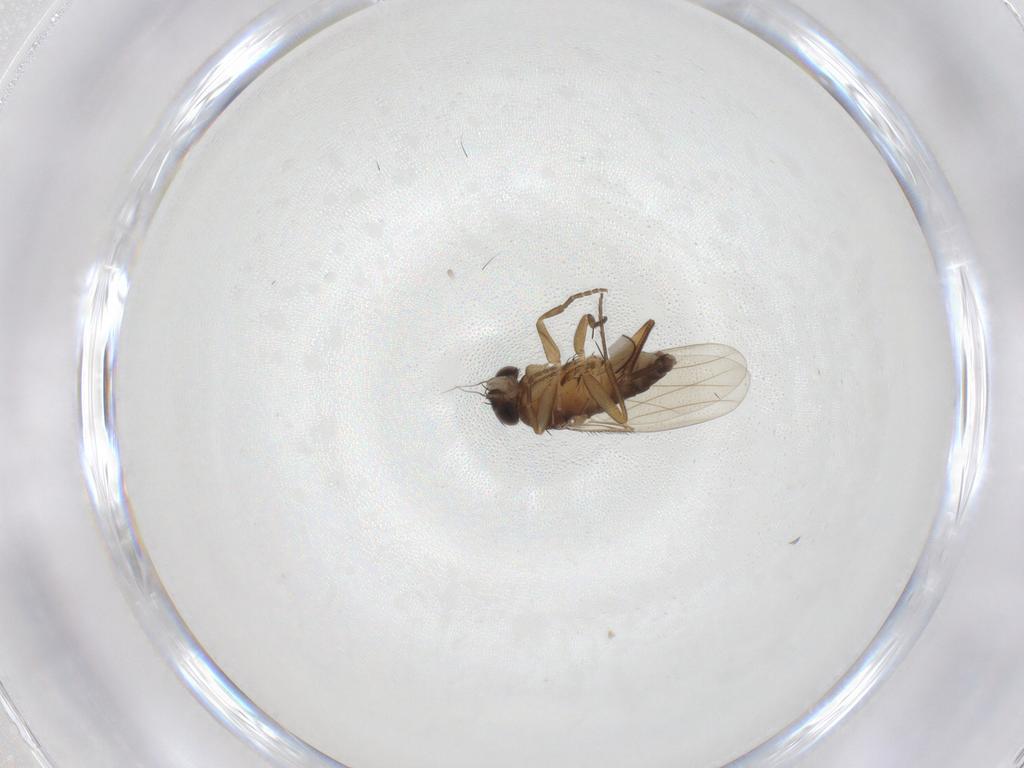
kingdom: Animalia
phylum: Arthropoda
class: Insecta
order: Diptera
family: Phoridae
